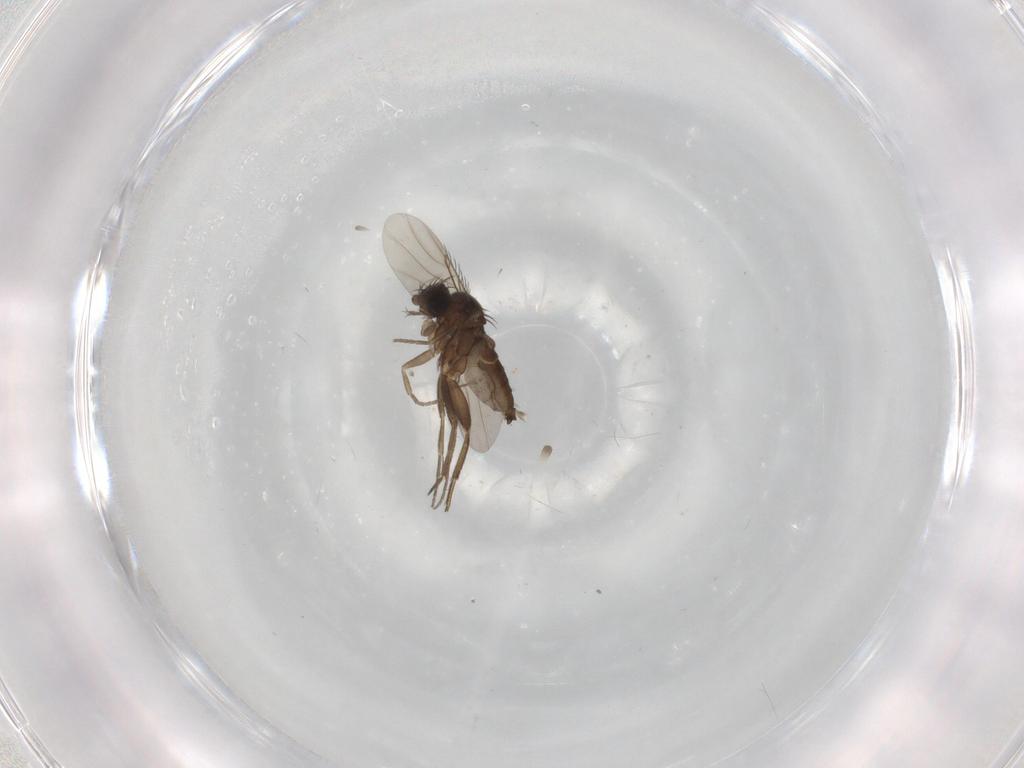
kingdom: Animalia
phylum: Arthropoda
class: Insecta
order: Diptera
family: Phoridae
